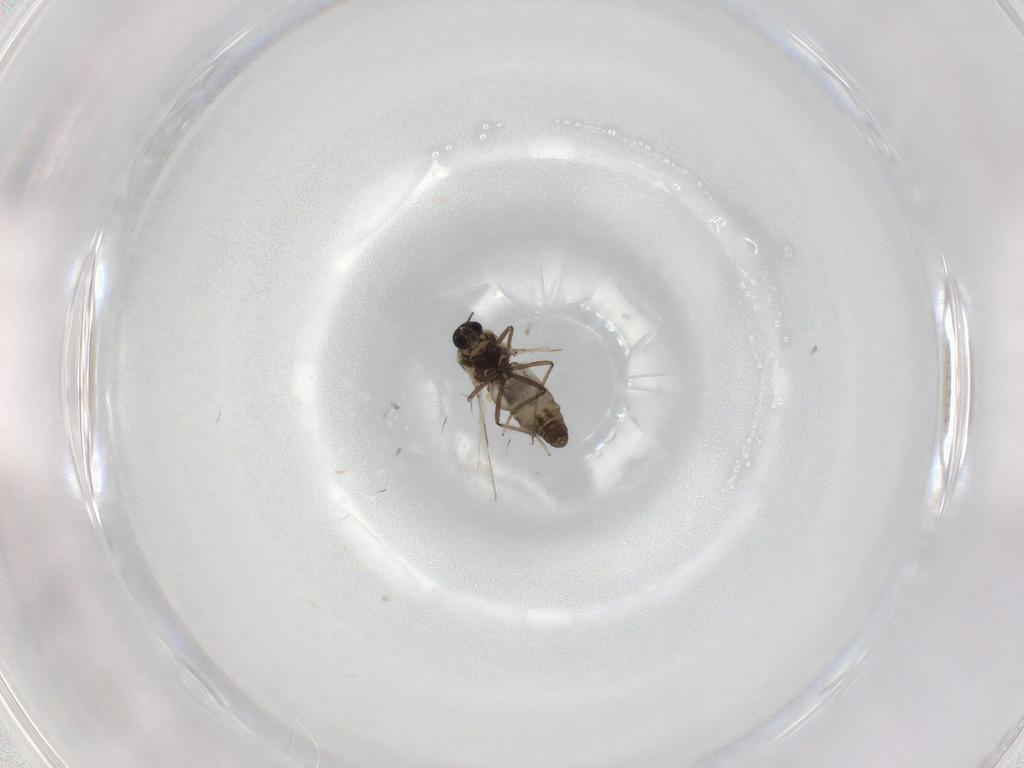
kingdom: Animalia
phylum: Arthropoda
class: Insecta
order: Diptera
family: Ceratopogonidae
